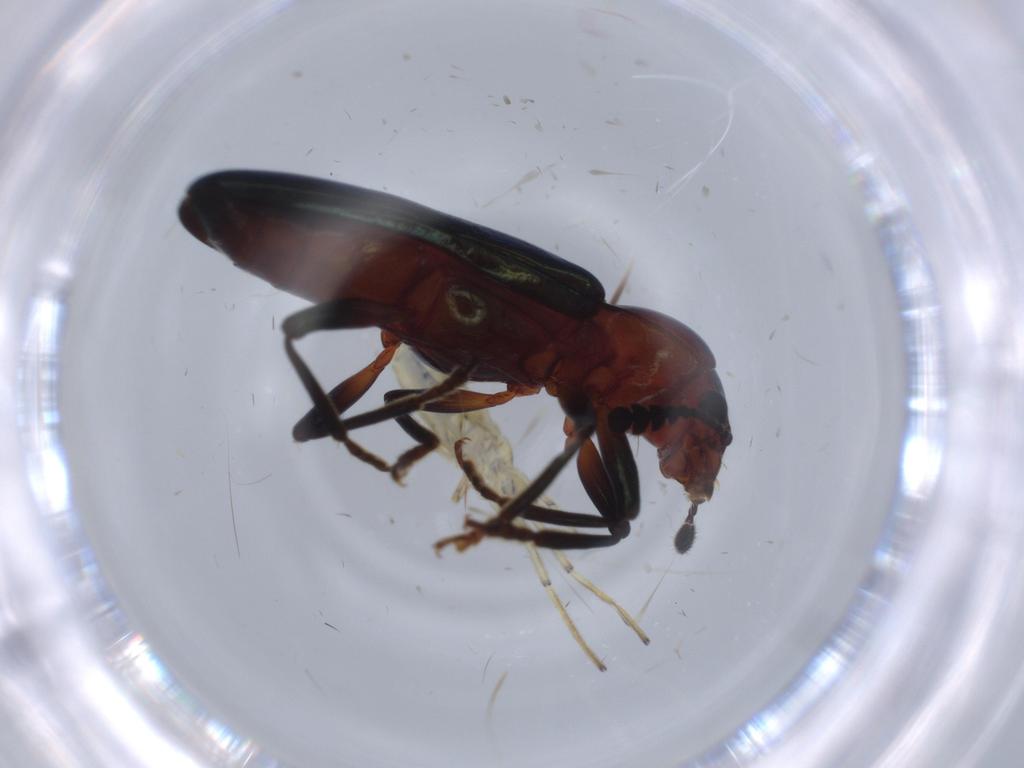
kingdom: Animalia
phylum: Arthropoda
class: Insecta
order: Coleoptera
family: Erotylidae
